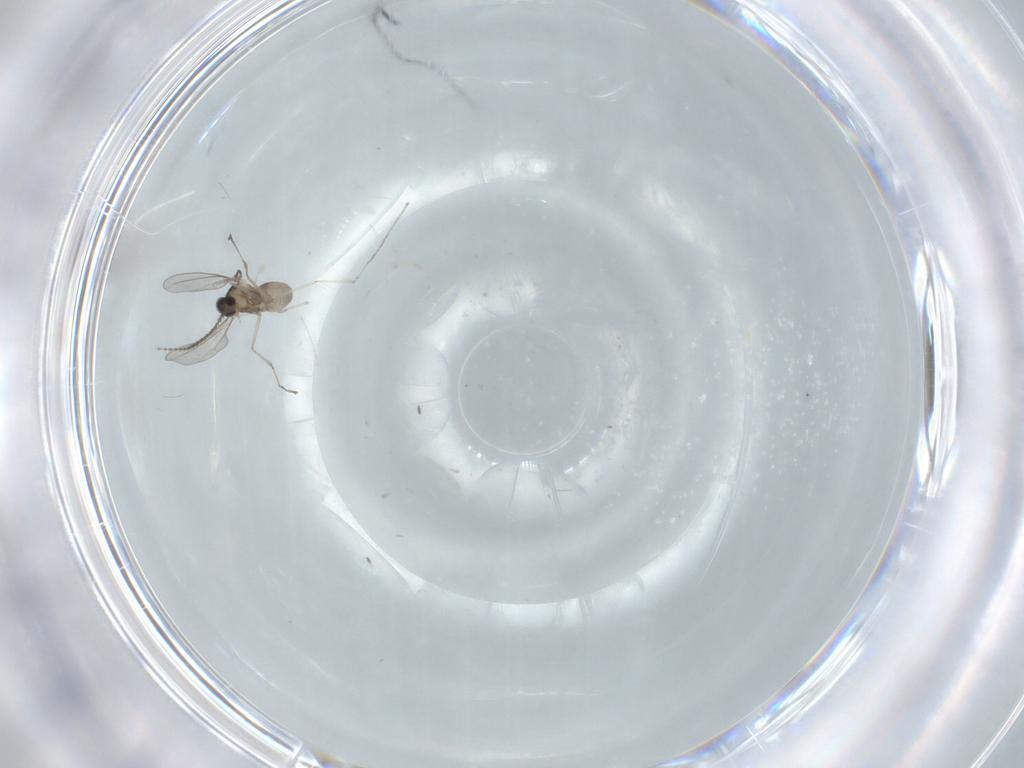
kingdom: Animalia
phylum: Arthropoda
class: Insecta
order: Diptera
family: Cecidomyiidae
